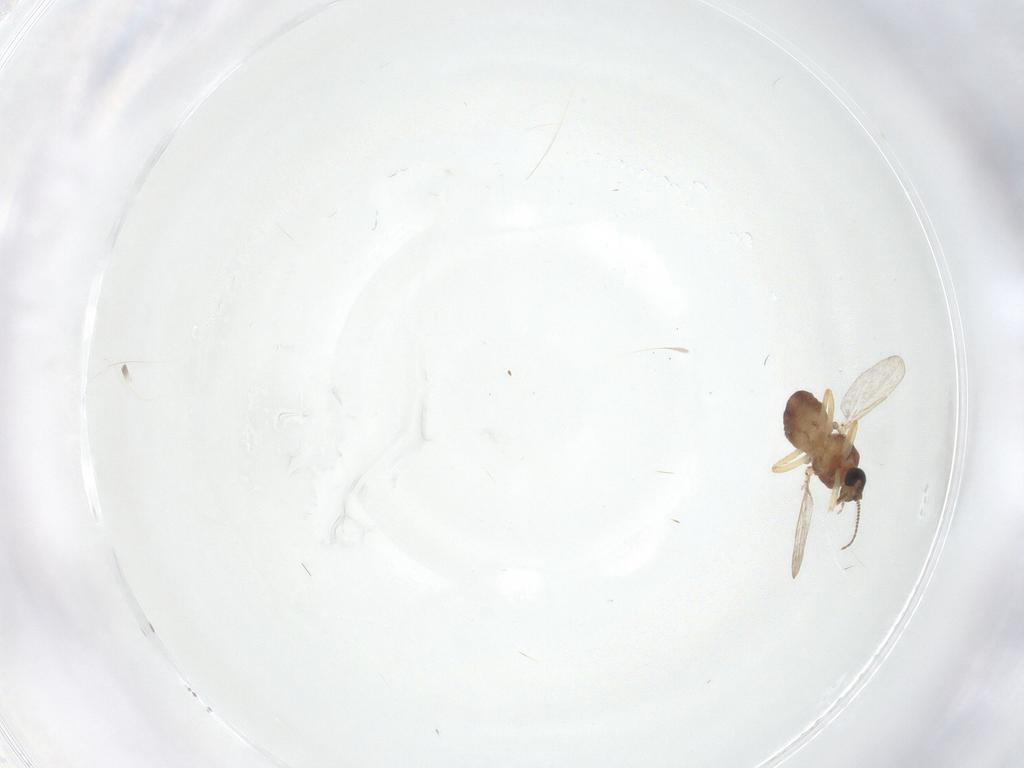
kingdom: Animalia
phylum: Arthropoda
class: Insecta
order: Diptera
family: Ceratopogonidae
